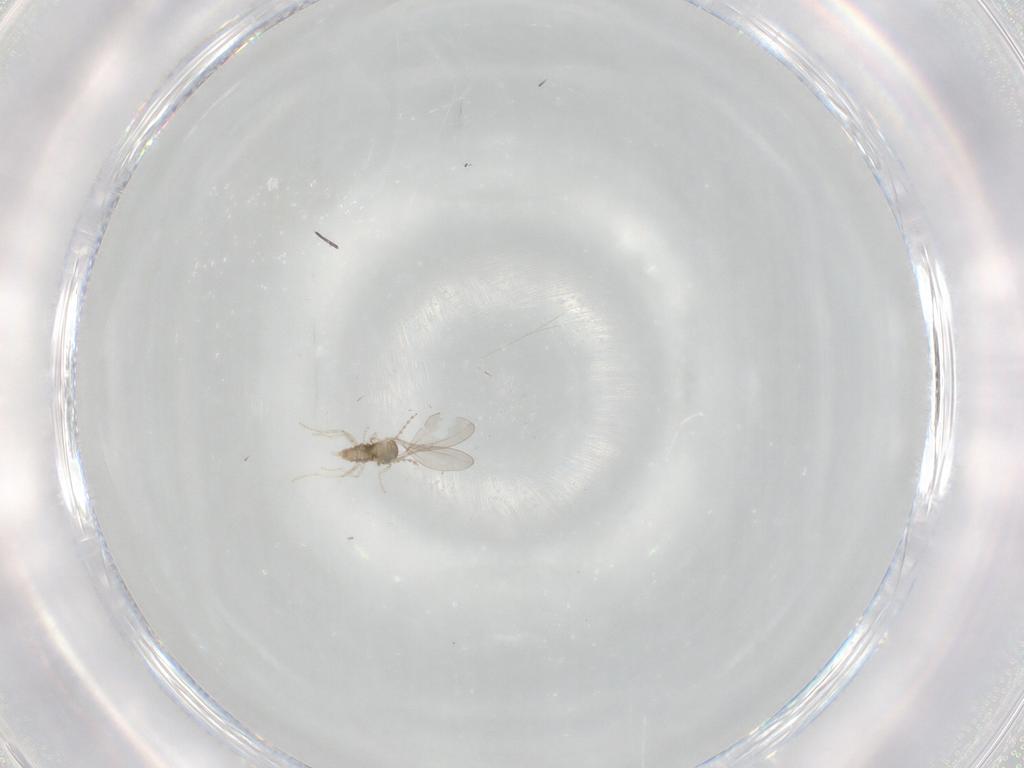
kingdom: Animalia
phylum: Arthropoda
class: Insecta
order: Diptera
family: Cecidomyiidae
